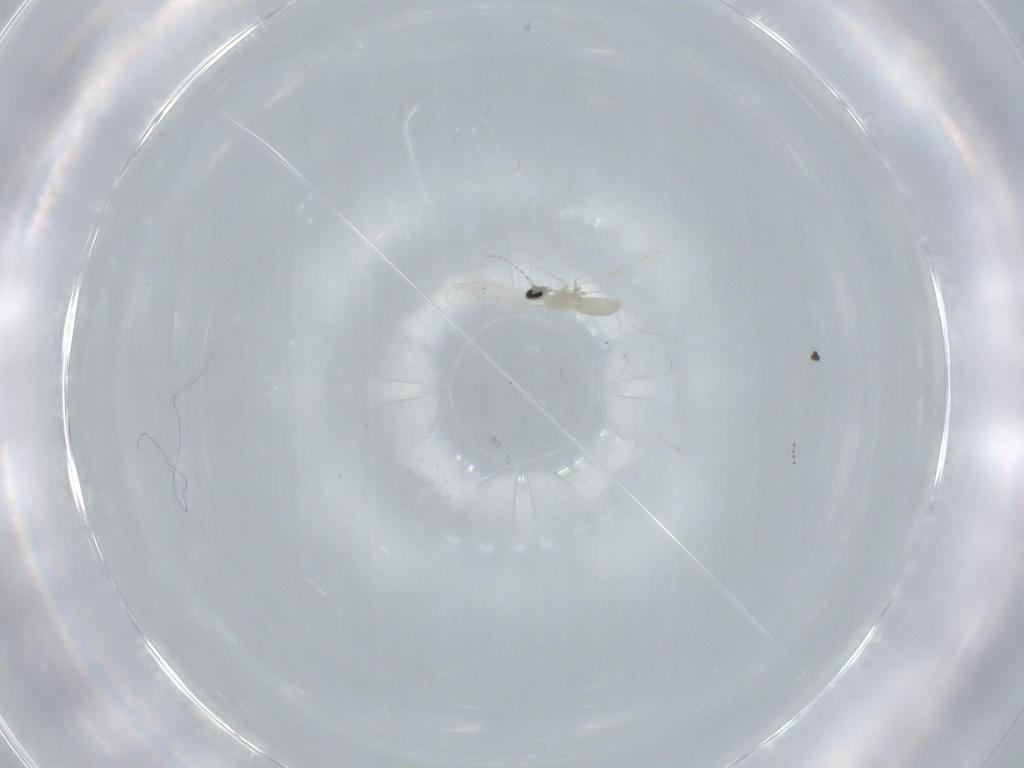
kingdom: Animalia
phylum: Arthropoda
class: Insecta
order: Diptera
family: Cecidomyiidae
